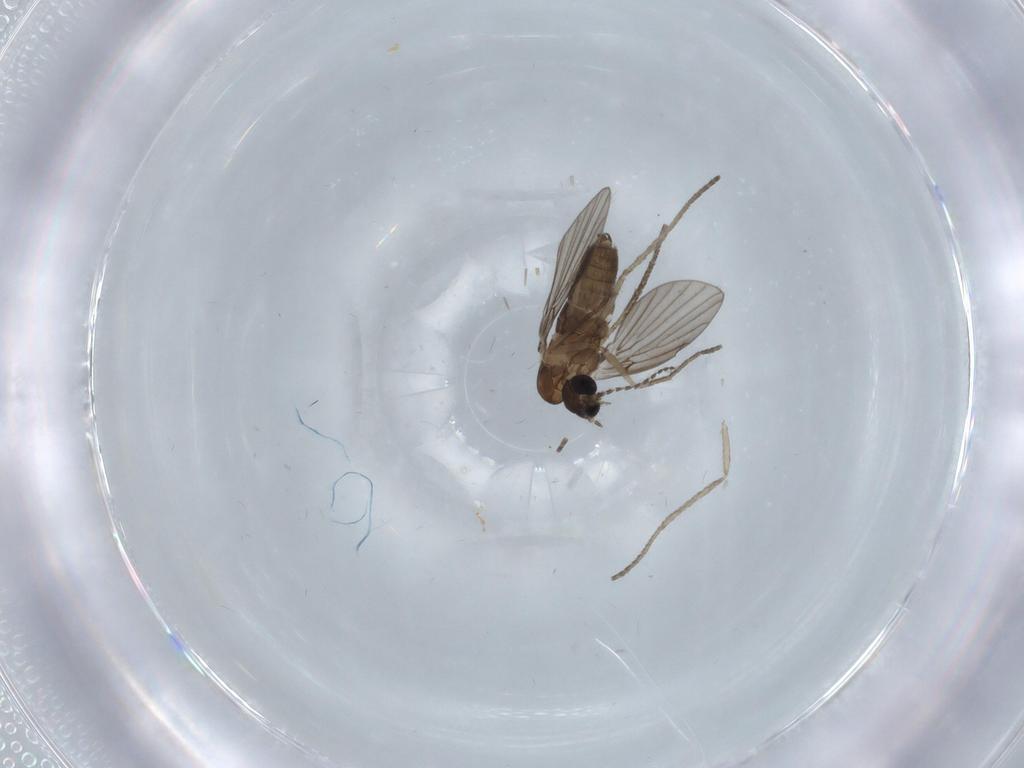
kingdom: Animalia
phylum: Arthropoda
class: Insecta
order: Diptera
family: Psychodidae
